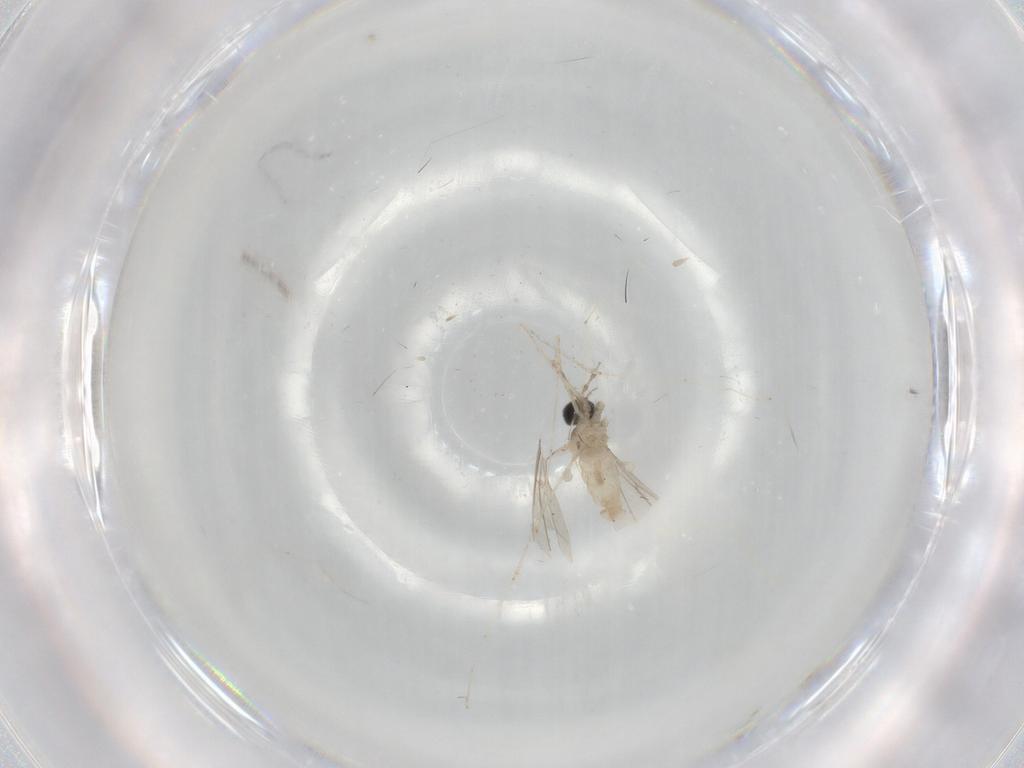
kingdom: Animalia
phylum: Arthropoda
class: Insecta
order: Diptera
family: Cecidomyiidae
